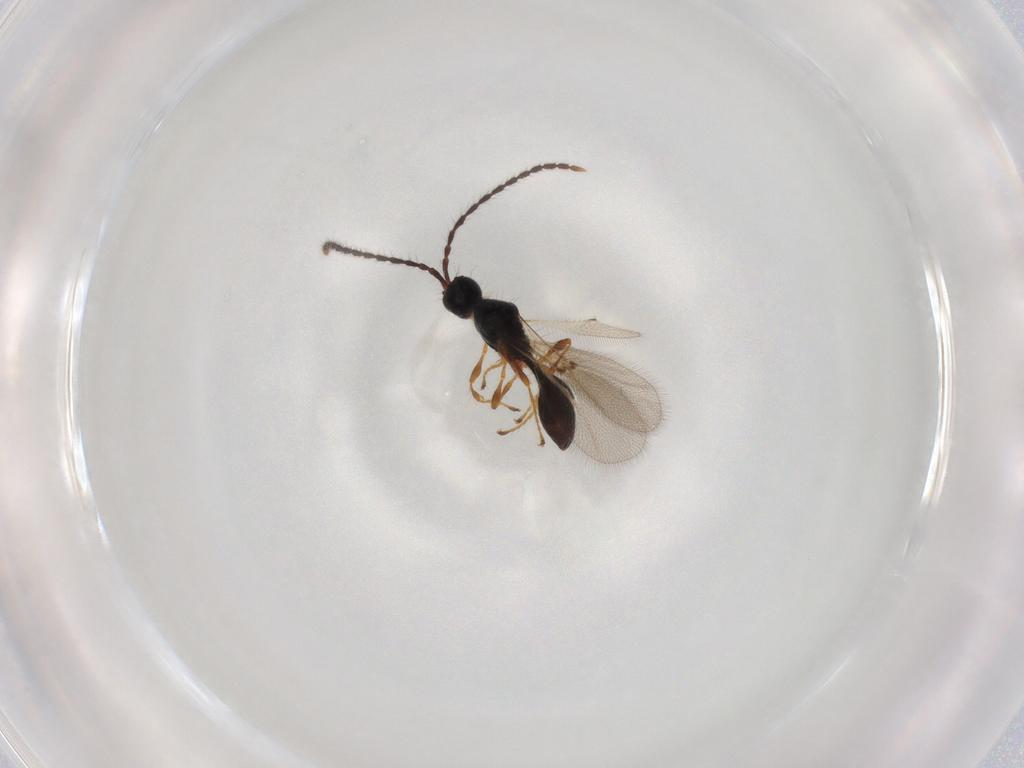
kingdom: Animalia
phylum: Arthropoda
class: Insecta
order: Hymenoptera
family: Diapriidae
